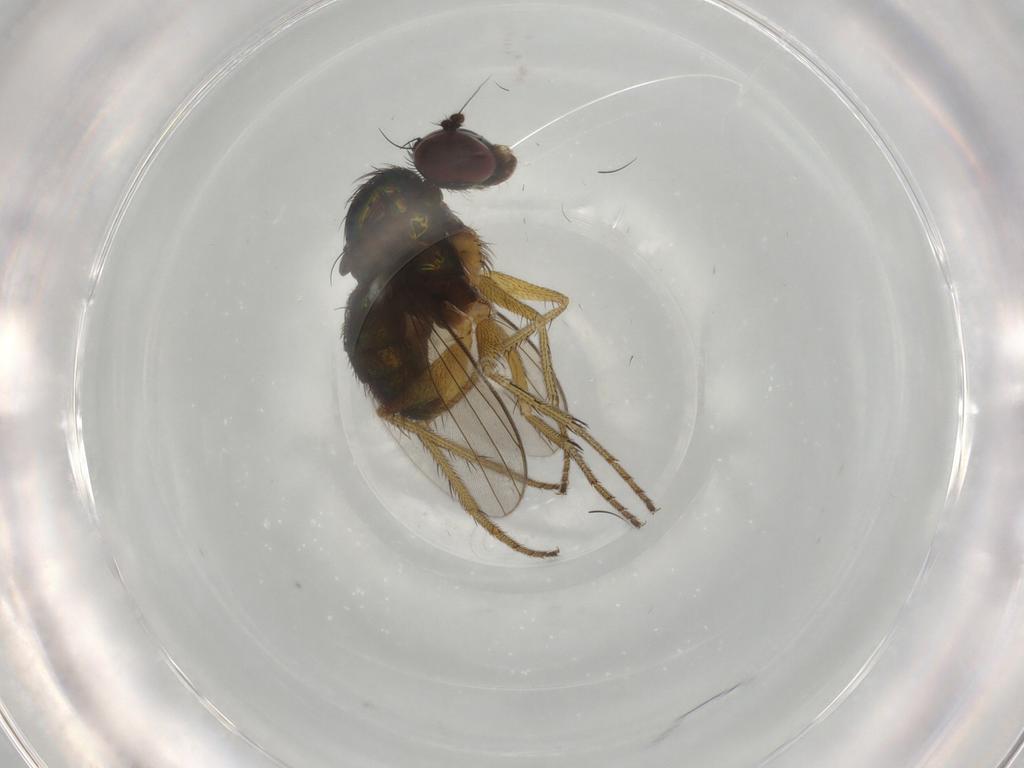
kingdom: Animalia
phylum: Arthropoda
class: Insecta
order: Diptera
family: Dolichopodidae
